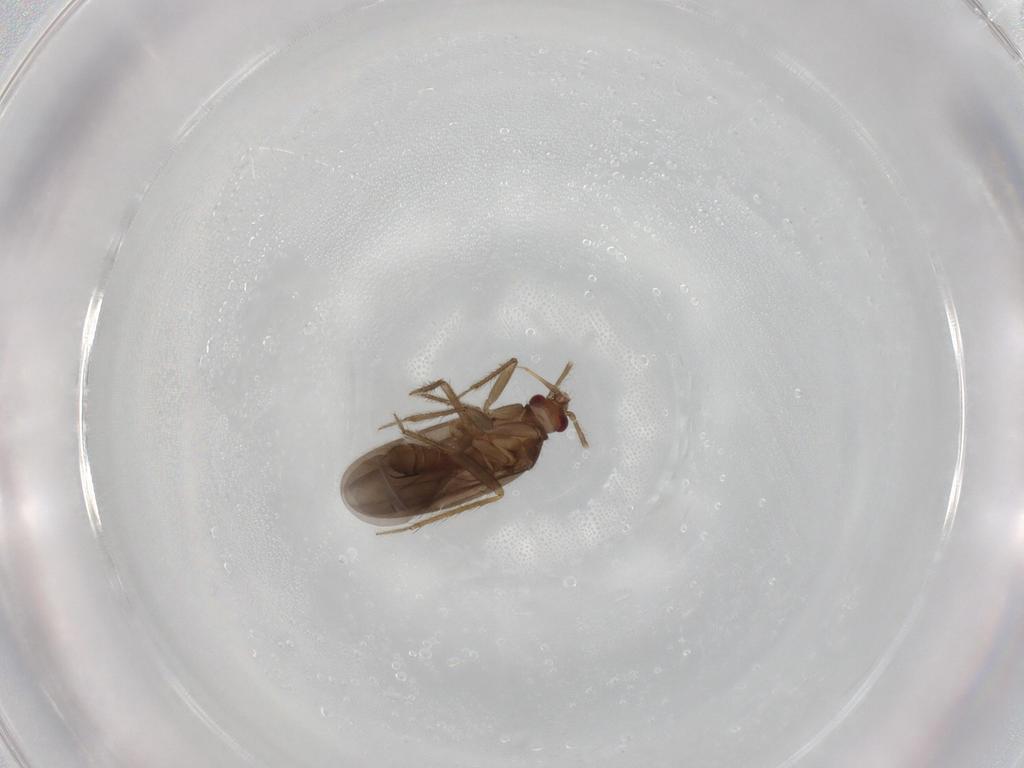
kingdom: Animalia
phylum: Arthropoda
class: Insecta
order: Hemiptera
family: Ceratocombidae
